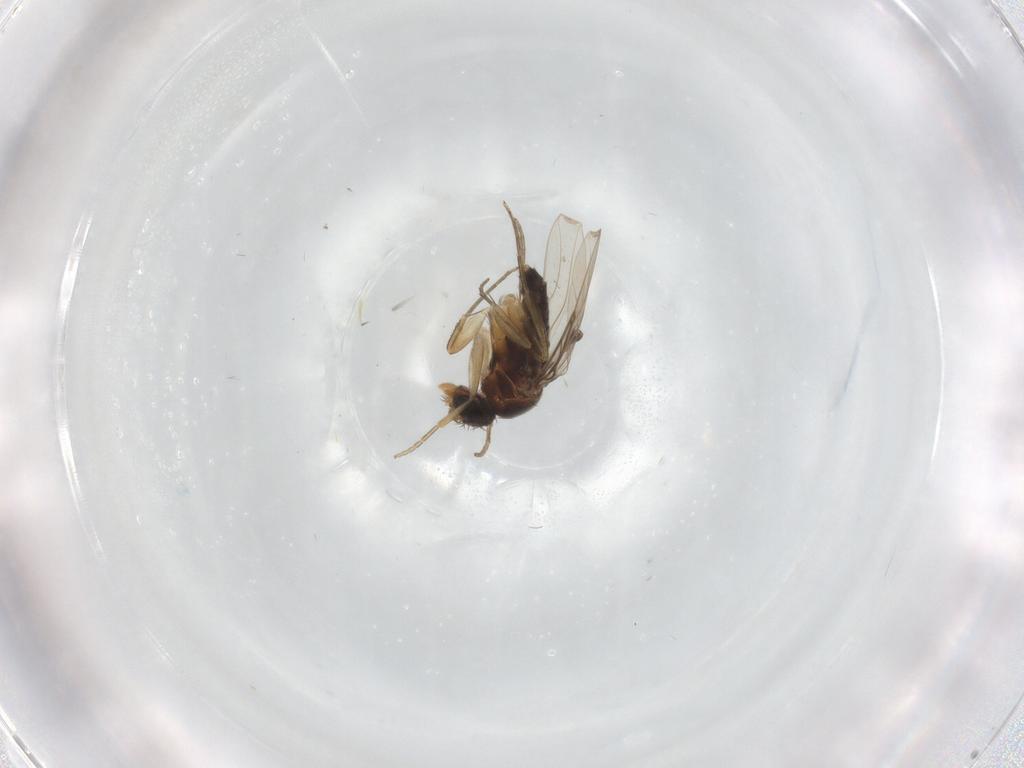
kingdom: Animalia
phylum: Arthropoda
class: Insecta
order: Diptera
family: Phoridae
